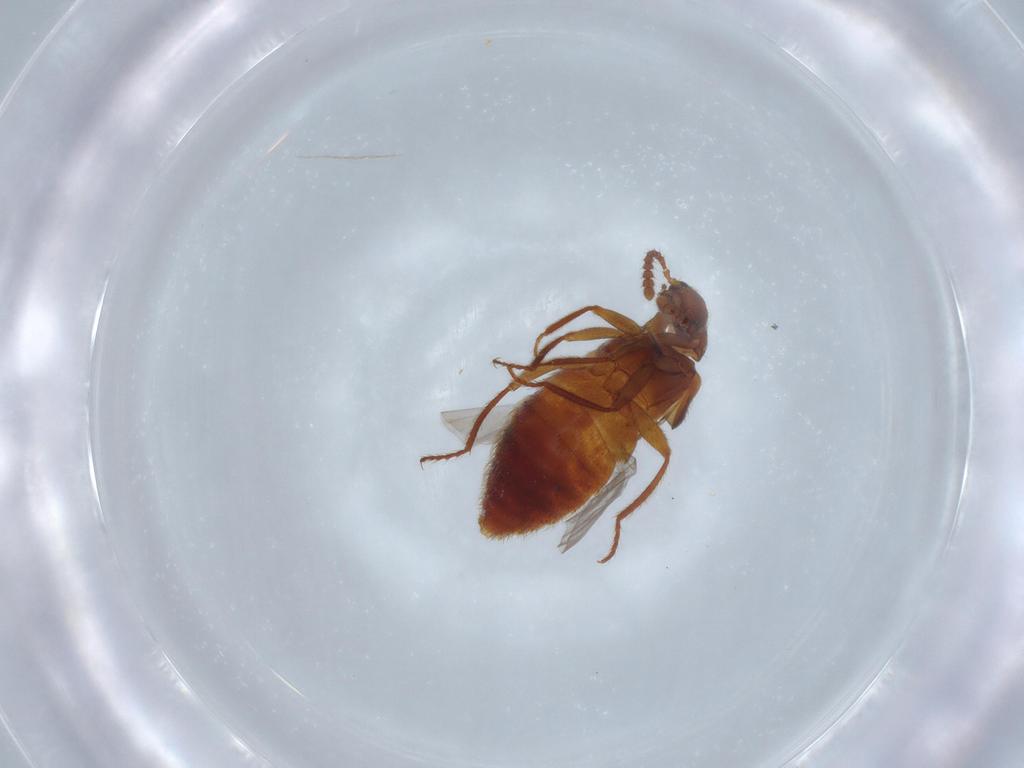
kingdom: Animalia
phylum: Arthropoda
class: Insecta
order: Coleoptera
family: Staphylinidae
